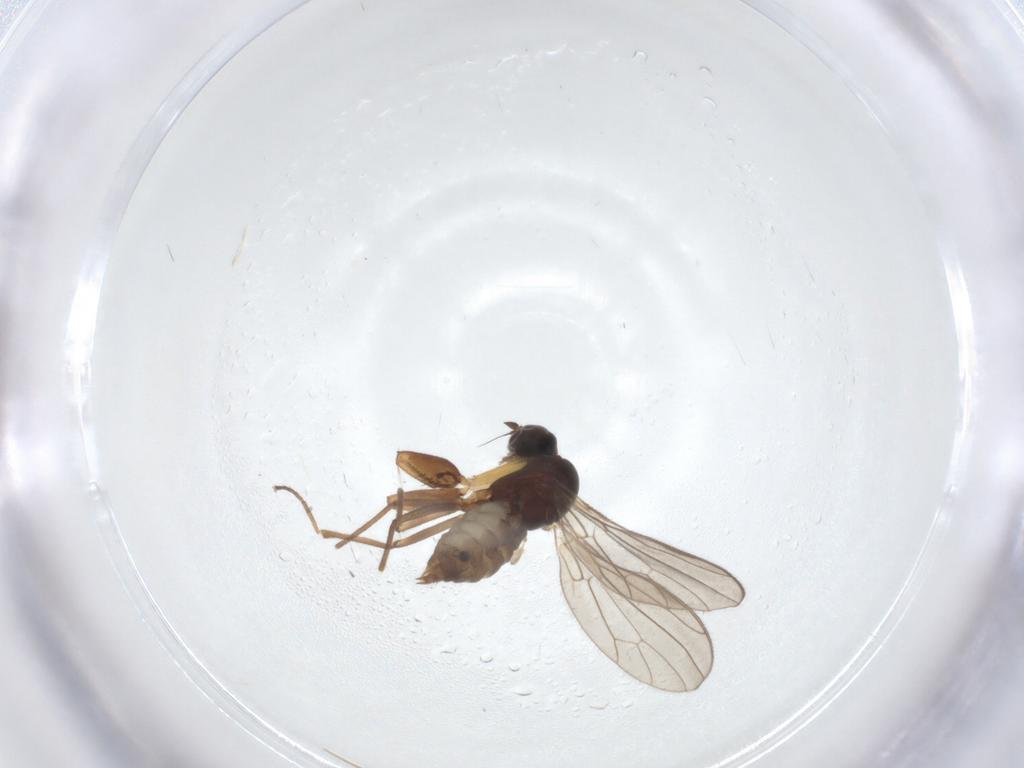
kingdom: Animalia
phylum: Arthropoda
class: Insecta
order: Diptera
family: Empididae
